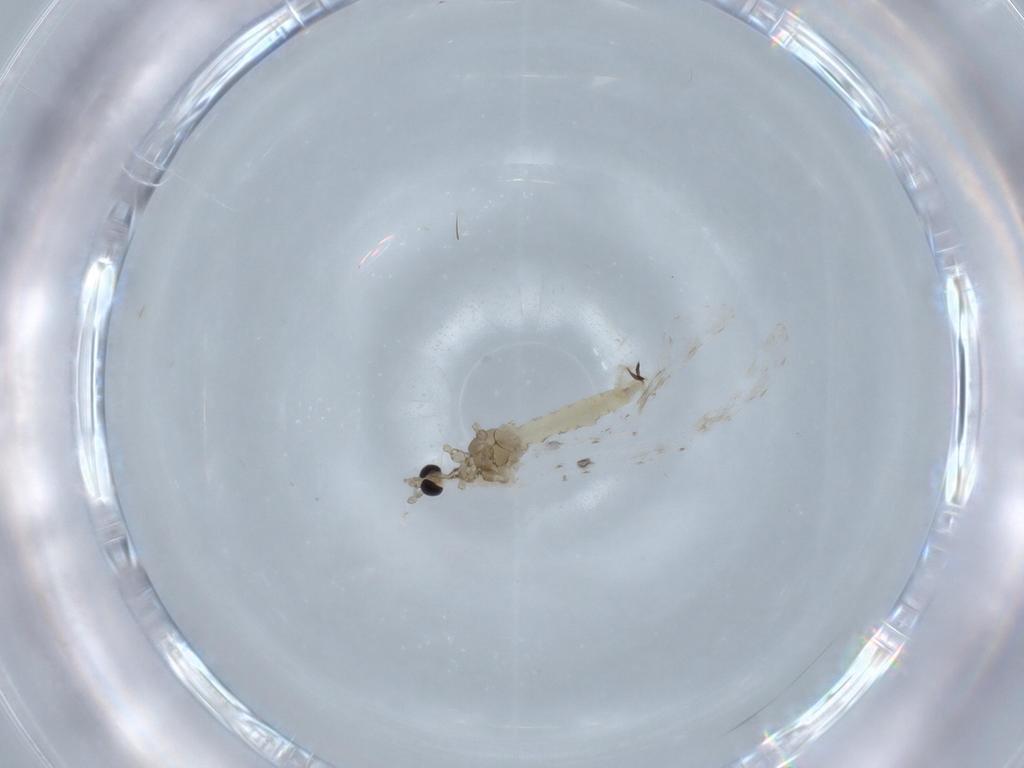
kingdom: Animalia
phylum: Arthropoda
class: Insecta
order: Diptera
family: Limoniidae
